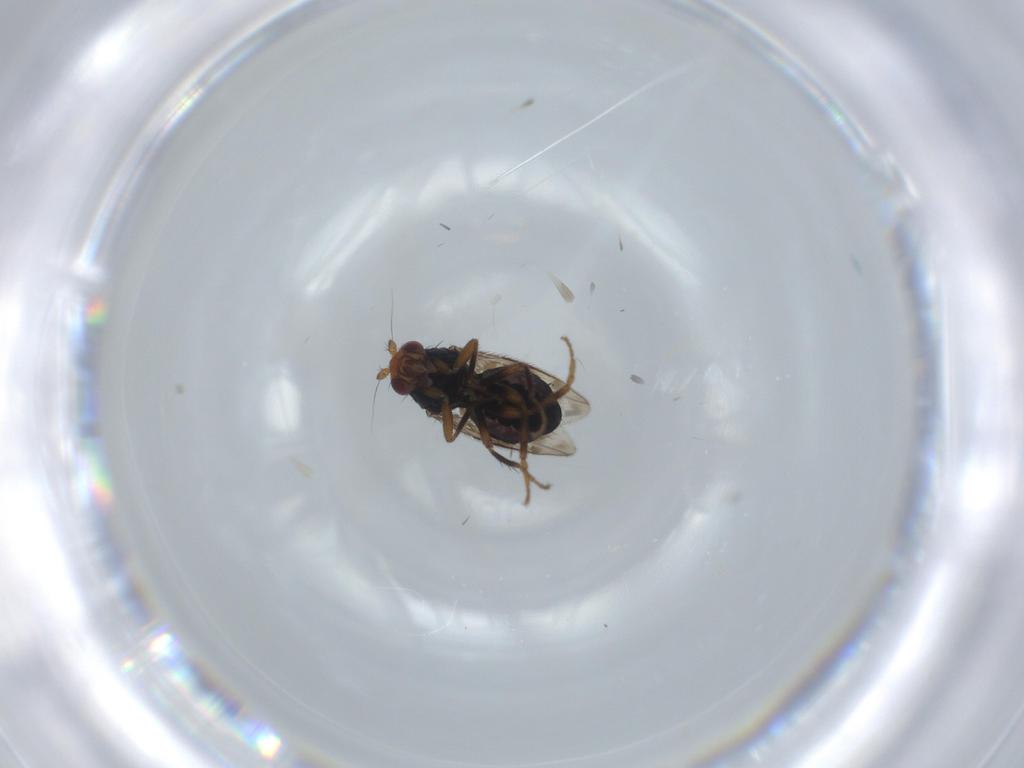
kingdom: Animalia
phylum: Arthropoda
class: Insecta
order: Diptera
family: Sphaeroceridae
